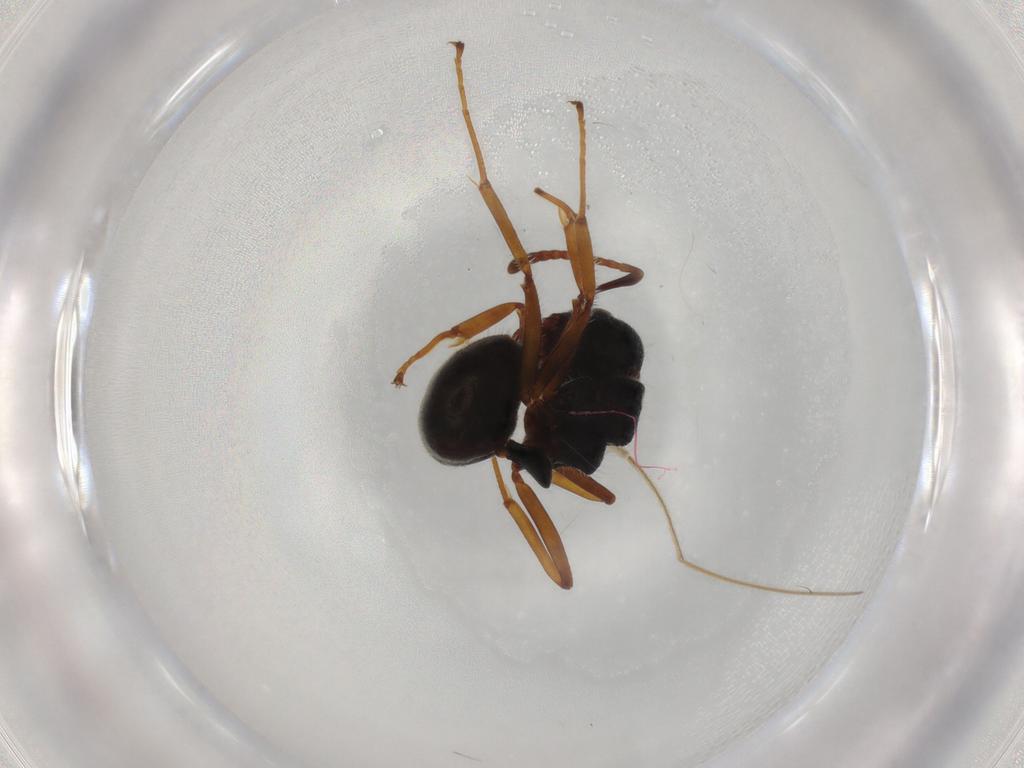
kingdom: Animalia
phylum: Arthropoda
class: Insecta
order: Hymenoptera
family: Formicidae
